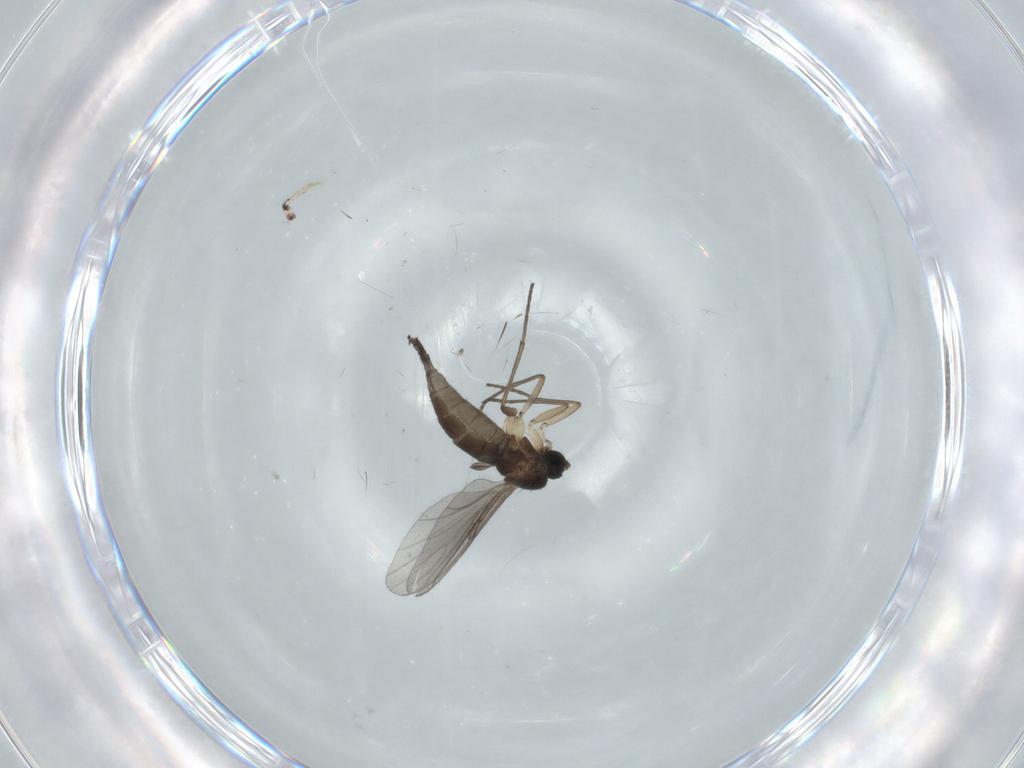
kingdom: Animalia
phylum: Arthropoda
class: Insecta
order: Diptera
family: Sciaridae
